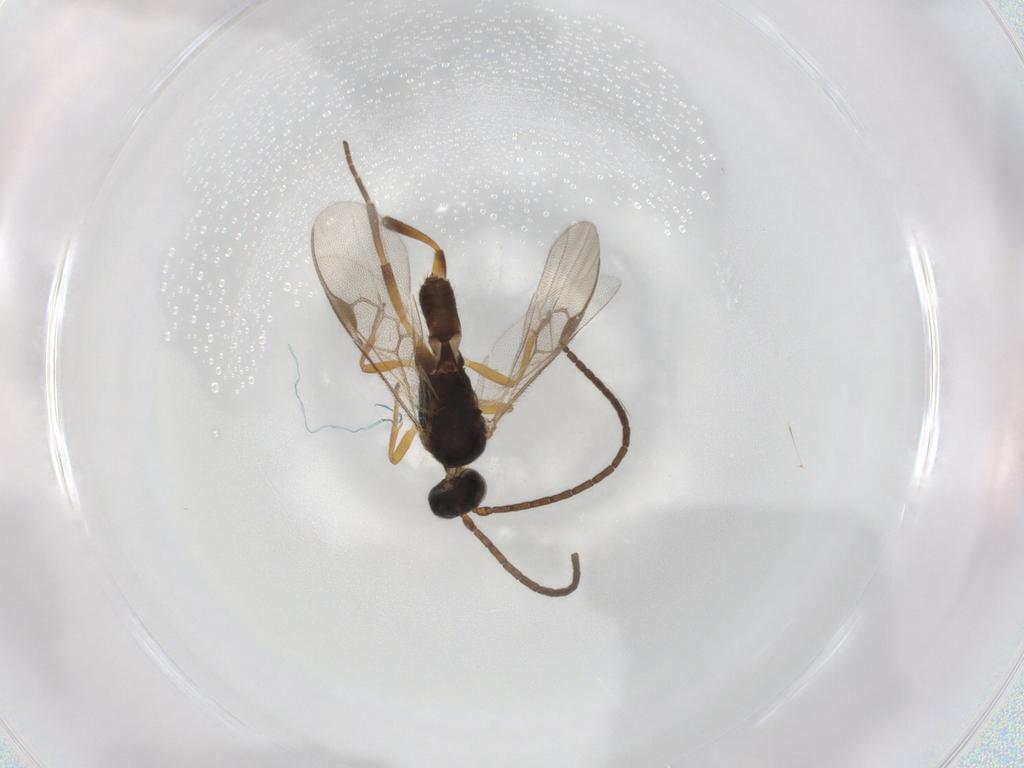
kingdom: Animalia
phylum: Arthropoda
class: Insecta
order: Hymenoptera
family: Braconidae
